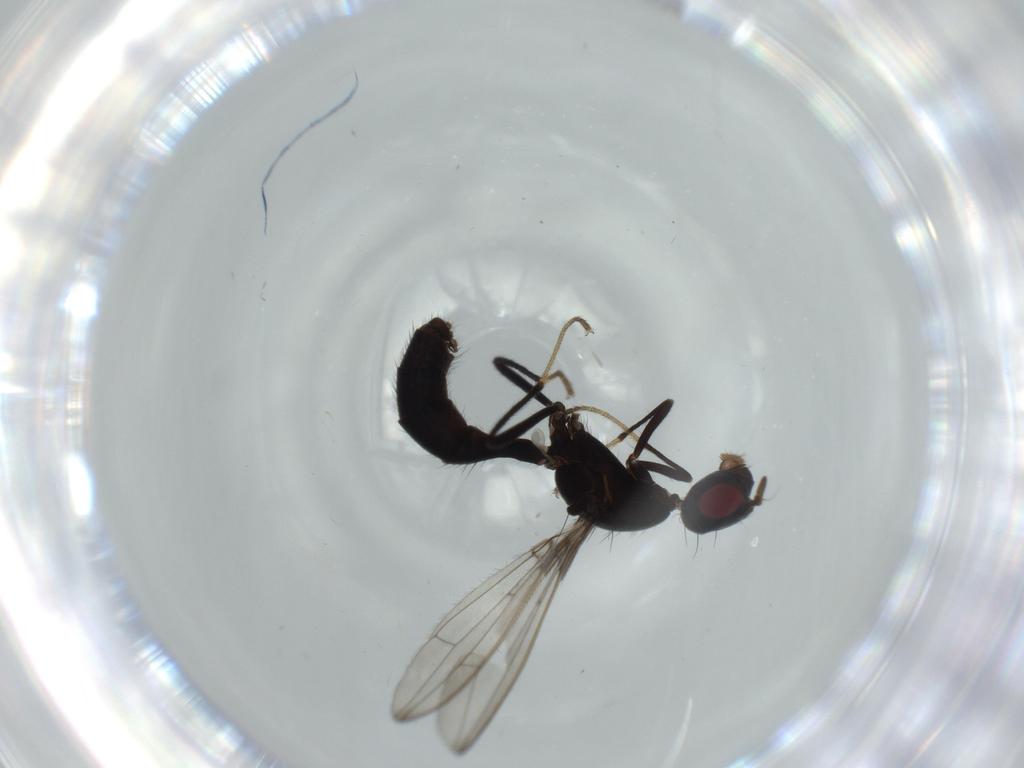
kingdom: Animalia
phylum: Arthropoda
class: Insecta
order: Diptera
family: Richardiidae
